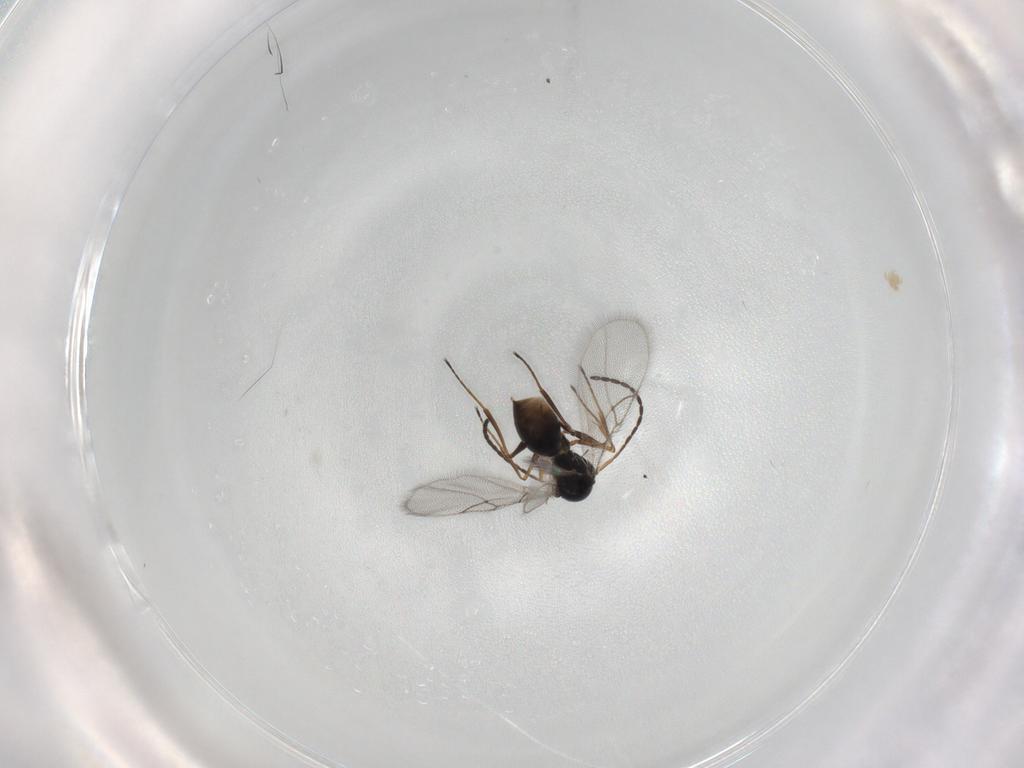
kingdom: Animalia
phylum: Arthropoda
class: Insecta
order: Hymenoptera
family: Figitidae
